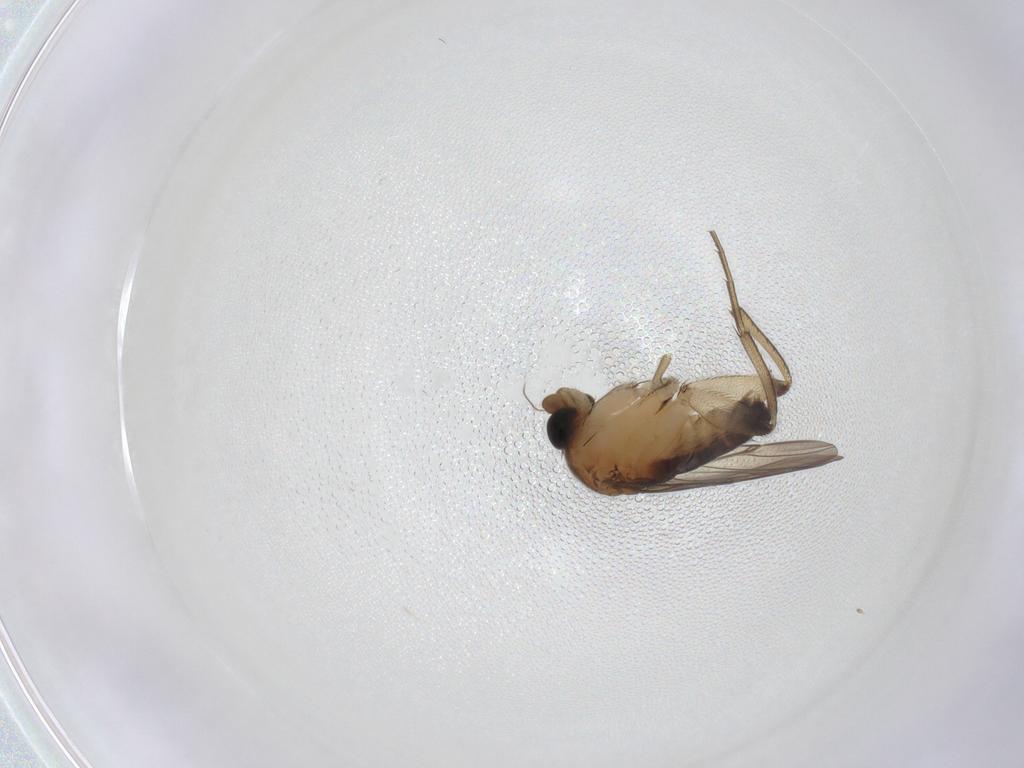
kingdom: Animalia
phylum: Arthropoda
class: Insecta
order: Diptera
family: Phoridae
